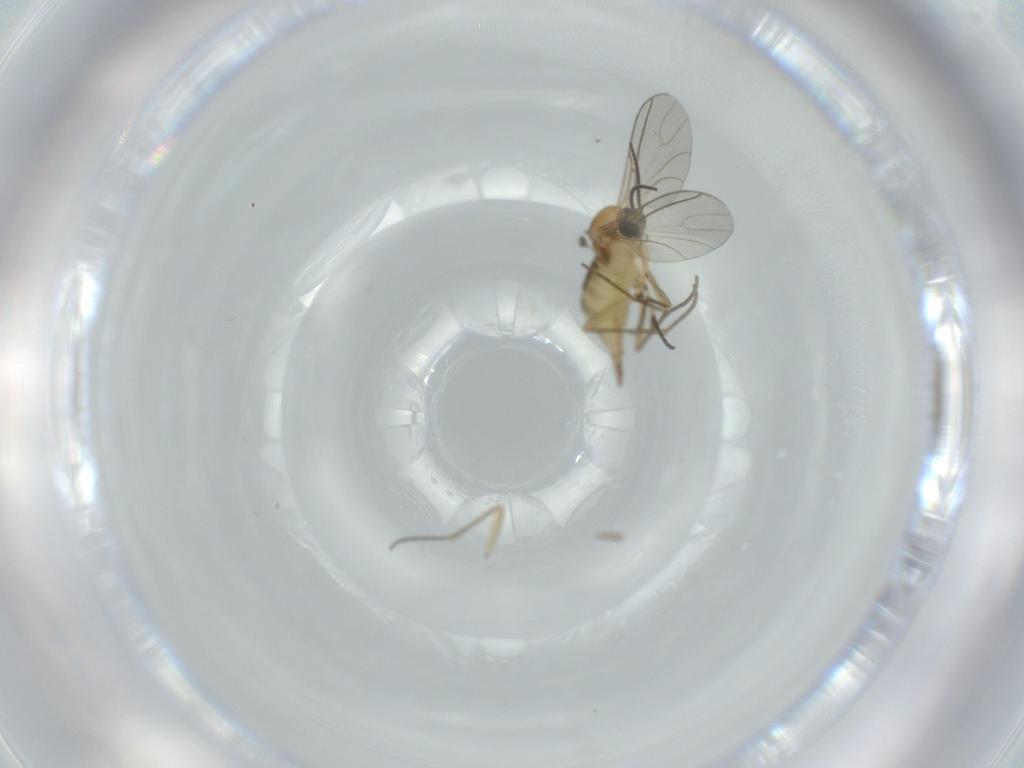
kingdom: Animalia
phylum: Arthropoda
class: Insecta
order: Diptera
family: Sciaridae
